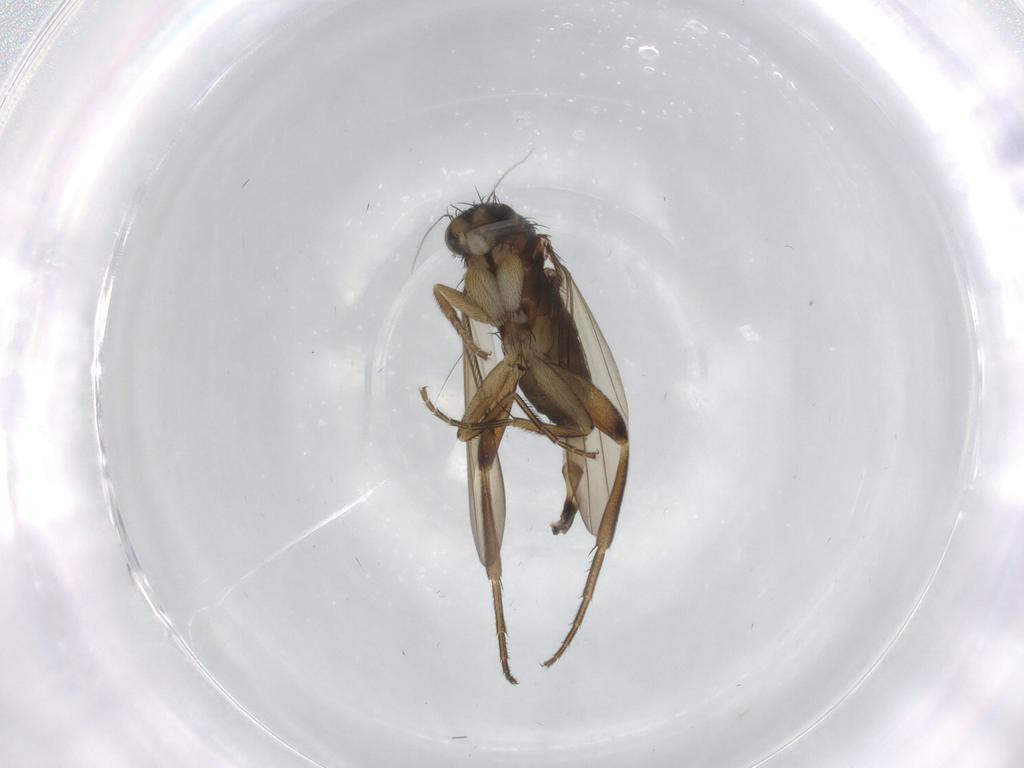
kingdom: Animalia
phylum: Arthropoda
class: Insecta
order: Diptera
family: Phoridae
